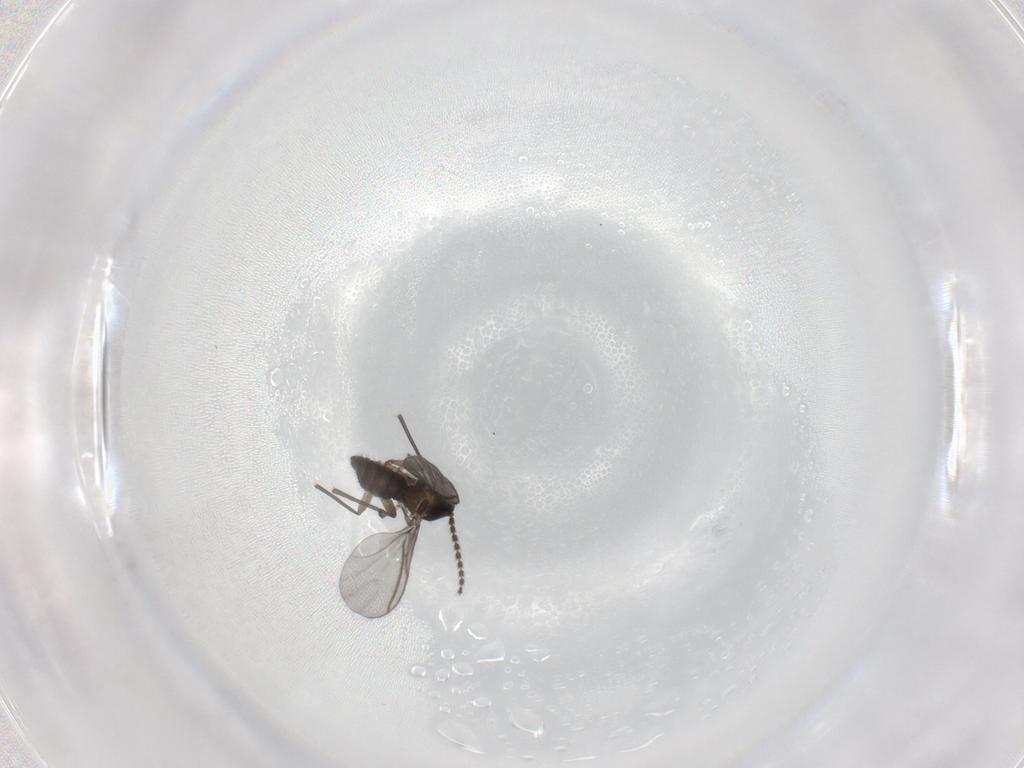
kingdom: Animalia
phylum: Arthropoda
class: Insecta
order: Diptera
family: Cecidomyiidae
